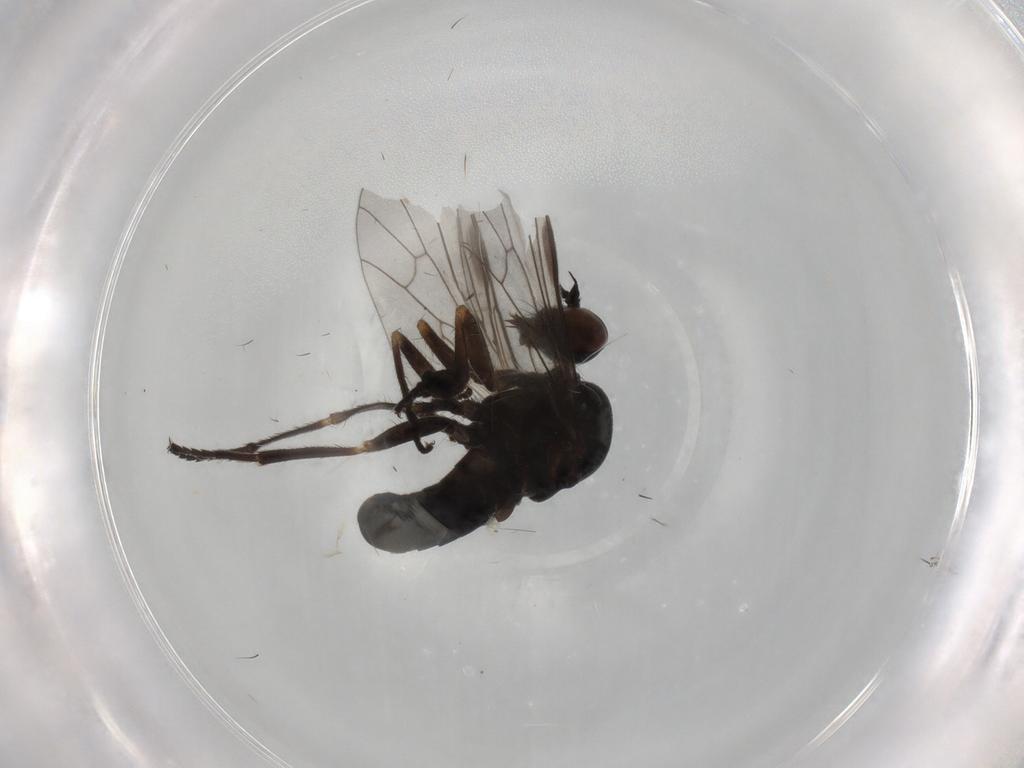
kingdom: Animalia
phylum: Arthropoda
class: Insecta
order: Diptera
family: Empididae
